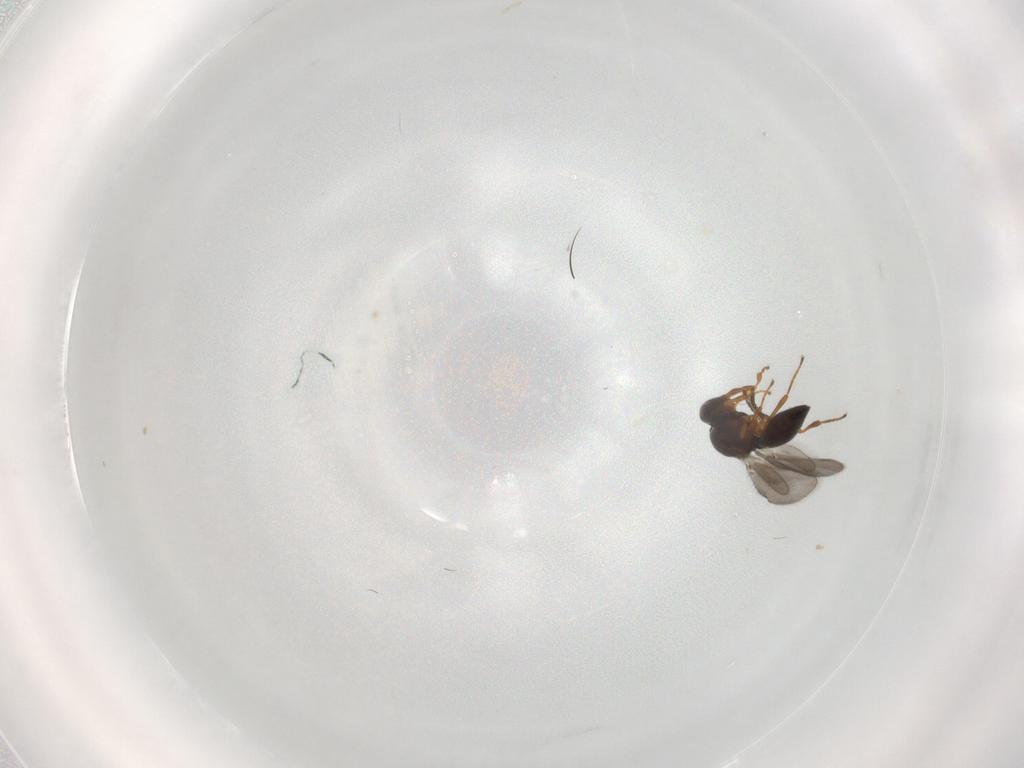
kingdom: Animalia
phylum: Arthropoda
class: Insecta
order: Hymenoptera
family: Platygastridae
